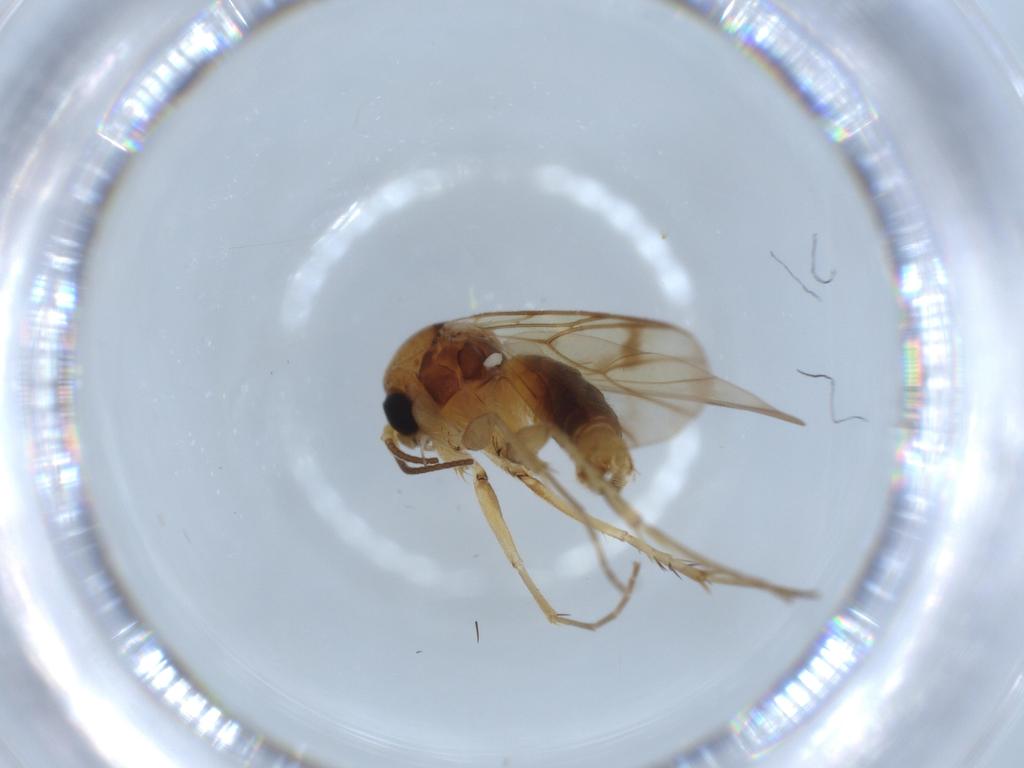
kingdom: Animalia
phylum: Arthropoda
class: Insecta
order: Diptera
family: Mycetophilidae
